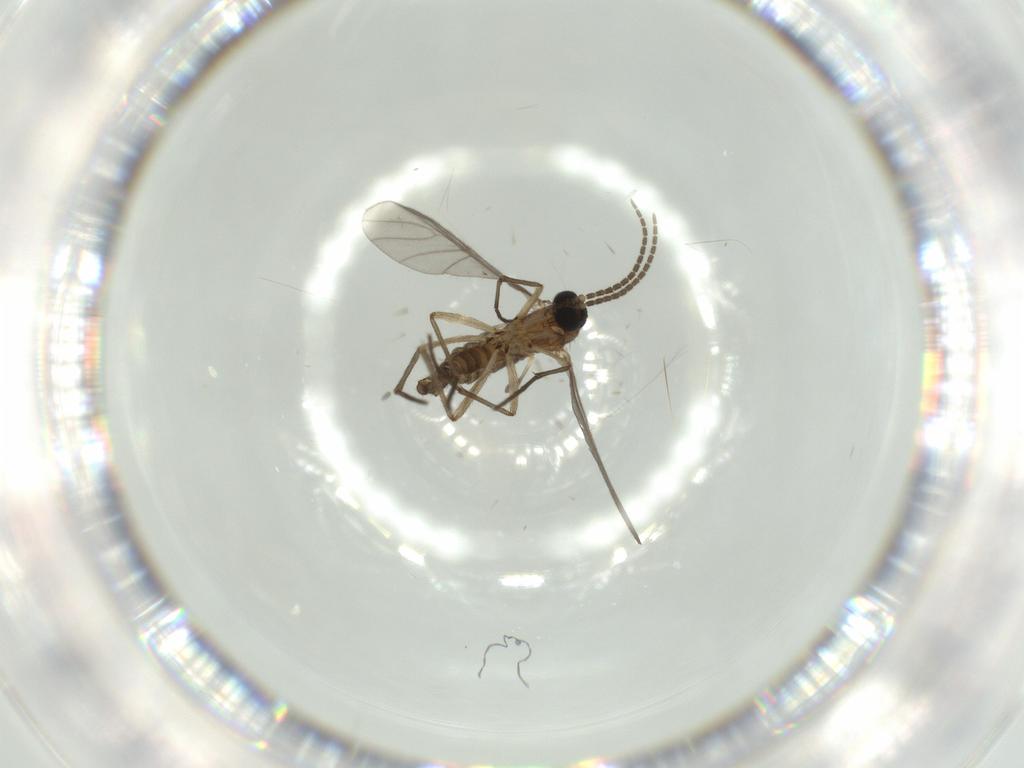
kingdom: Animalia
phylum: Arthropoda
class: Insecta
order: Diptera
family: Sciaridae
